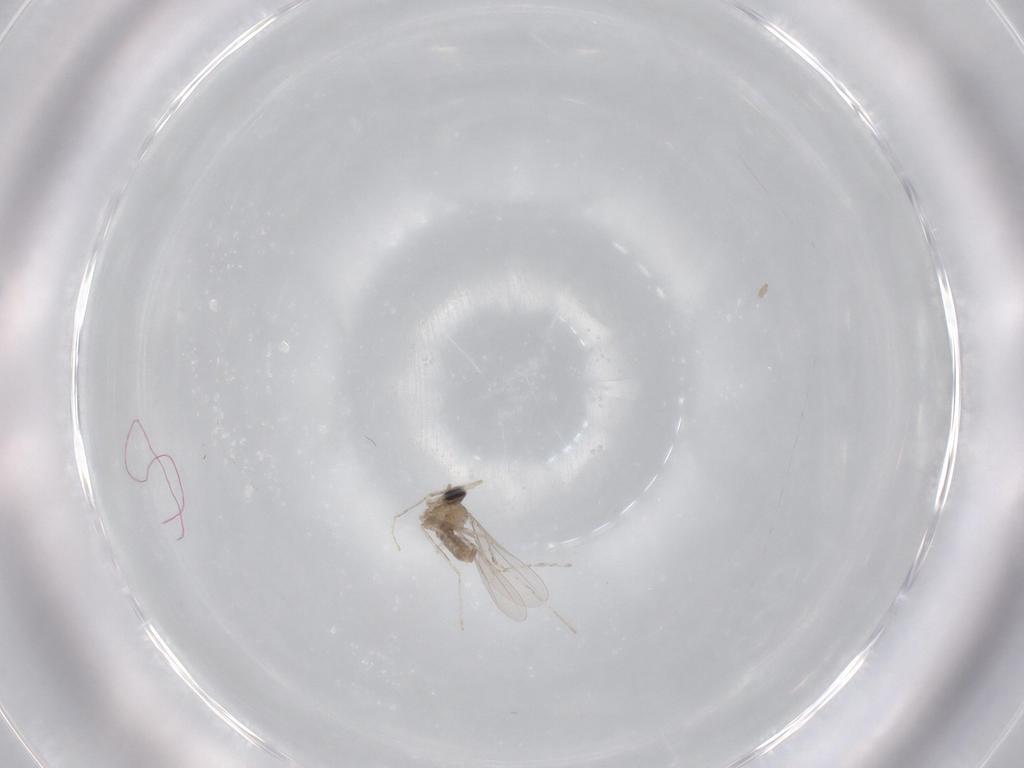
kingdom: Animalia
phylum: Arthropoda
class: Insecta
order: Diptera
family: Cecidomyiidae
